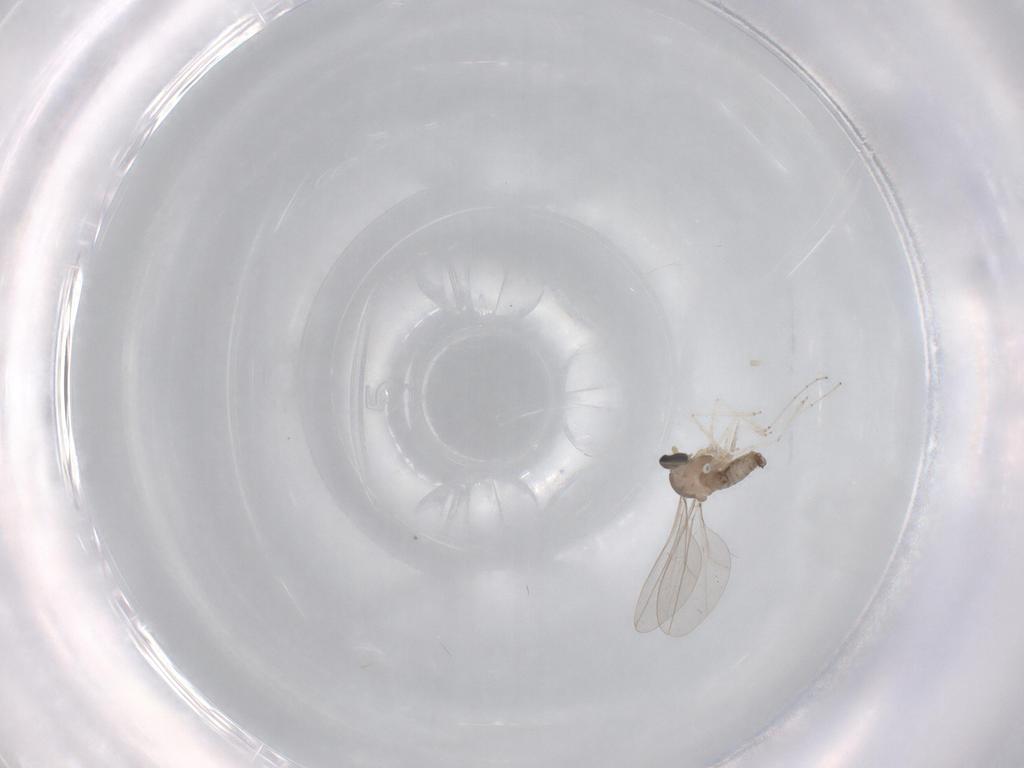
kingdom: Animalia
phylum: Arthropoda
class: Insecta
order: Diptera
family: Cecidomyiidae
